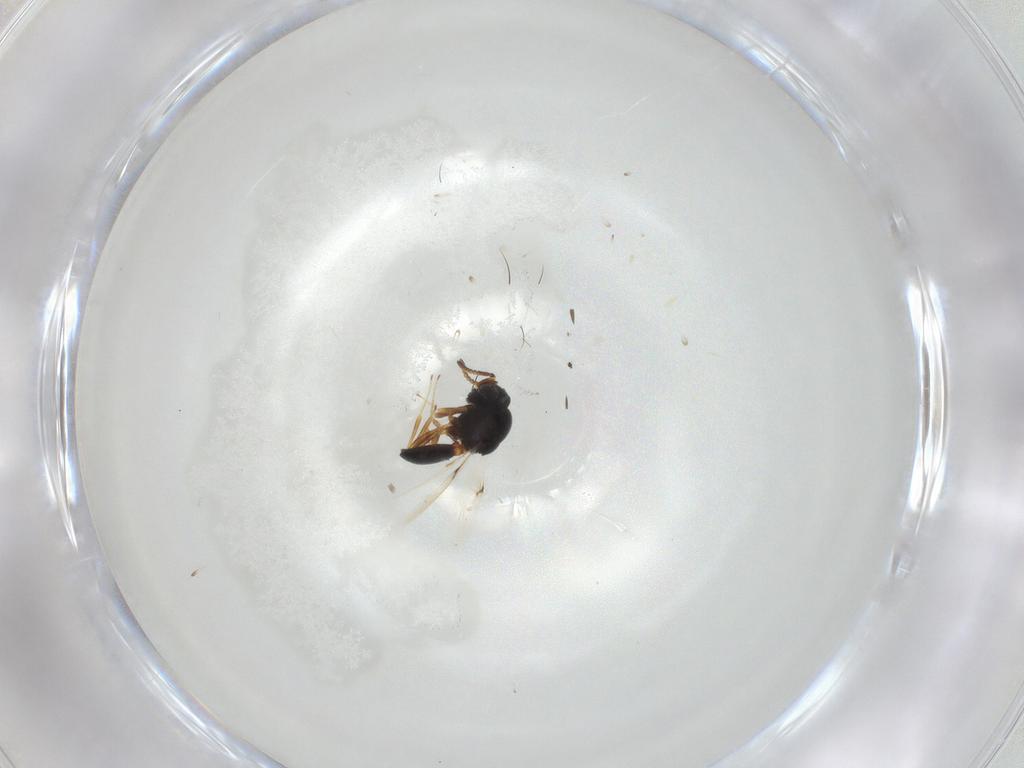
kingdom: Animalia
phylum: Arthropoda
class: Insecta
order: Hymenoptera
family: Scelionidae
